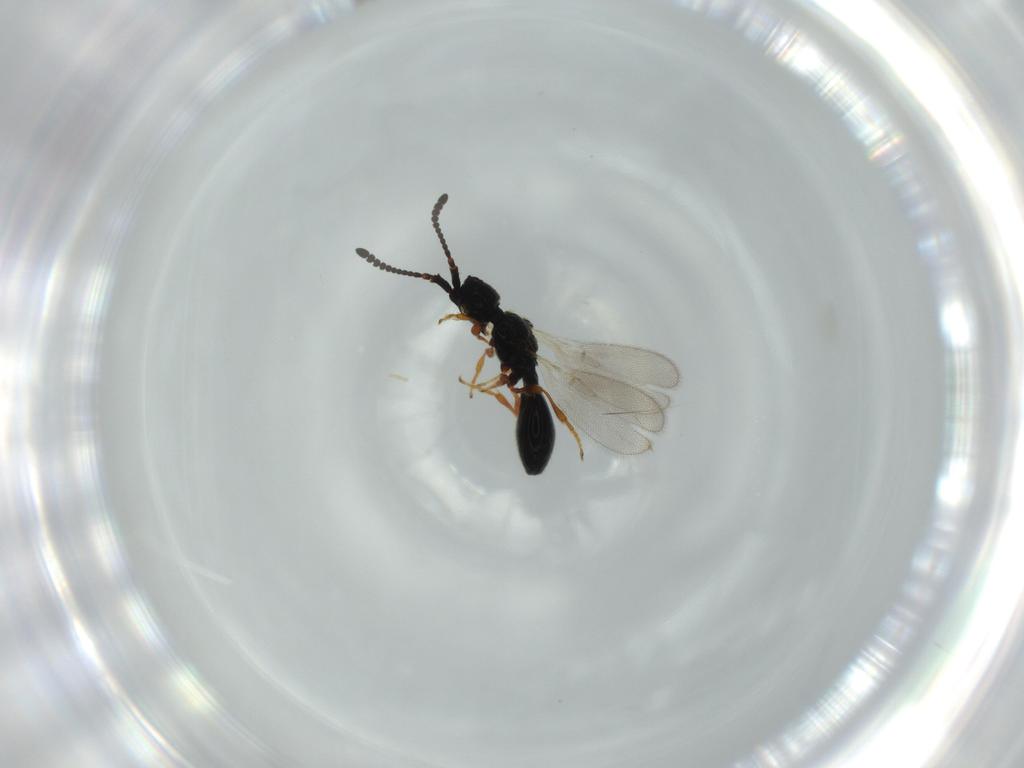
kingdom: Animalia
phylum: Arthropoda
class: Insecta
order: Hymenoptera
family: Diapriidae
